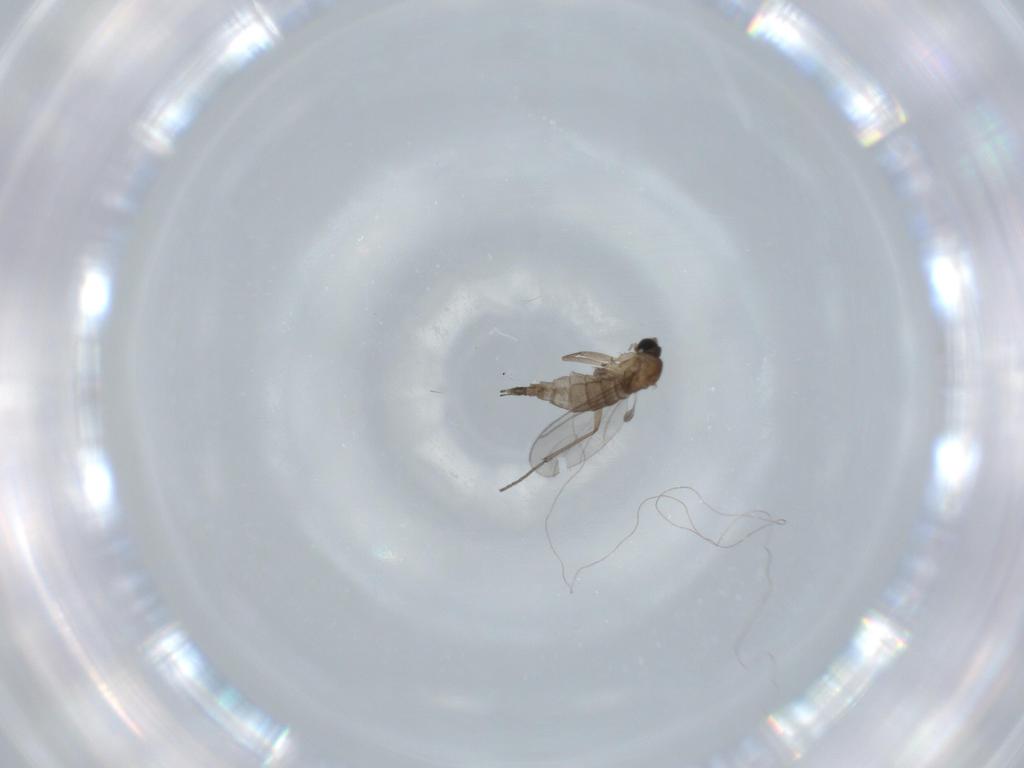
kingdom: Animalia
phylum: Arthropoda
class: Insecta
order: Diptera
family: Sciaridae
